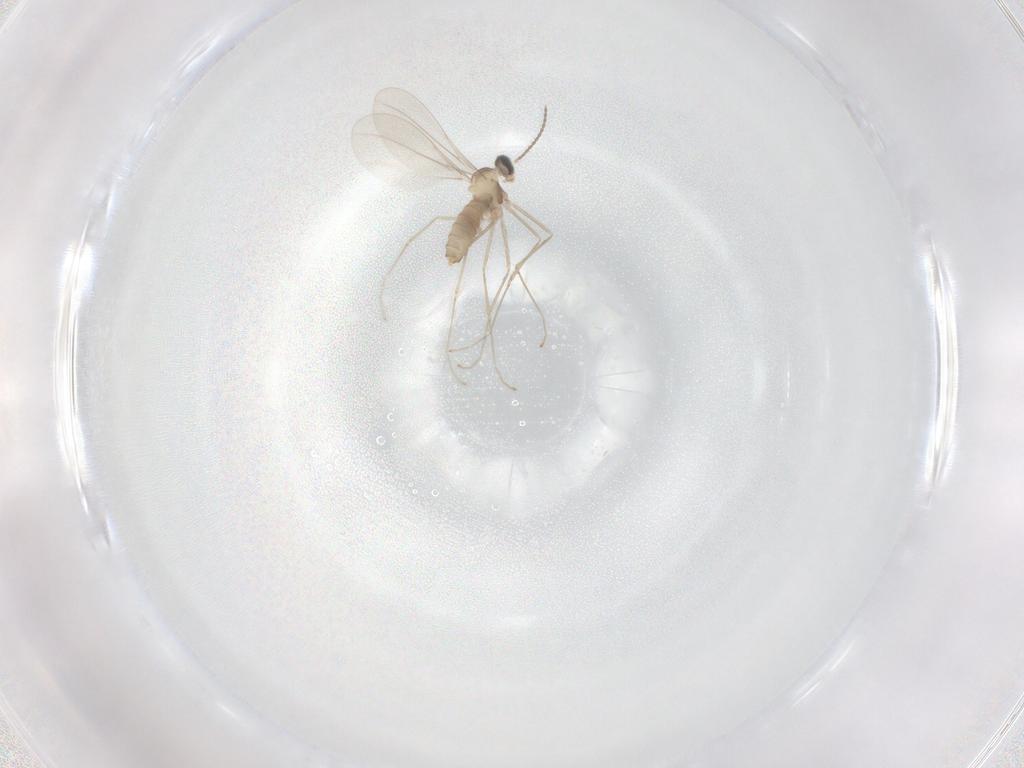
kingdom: Animalia
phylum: Arthropoda
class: Insecta
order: Diptera
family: Cecidomyiidae
